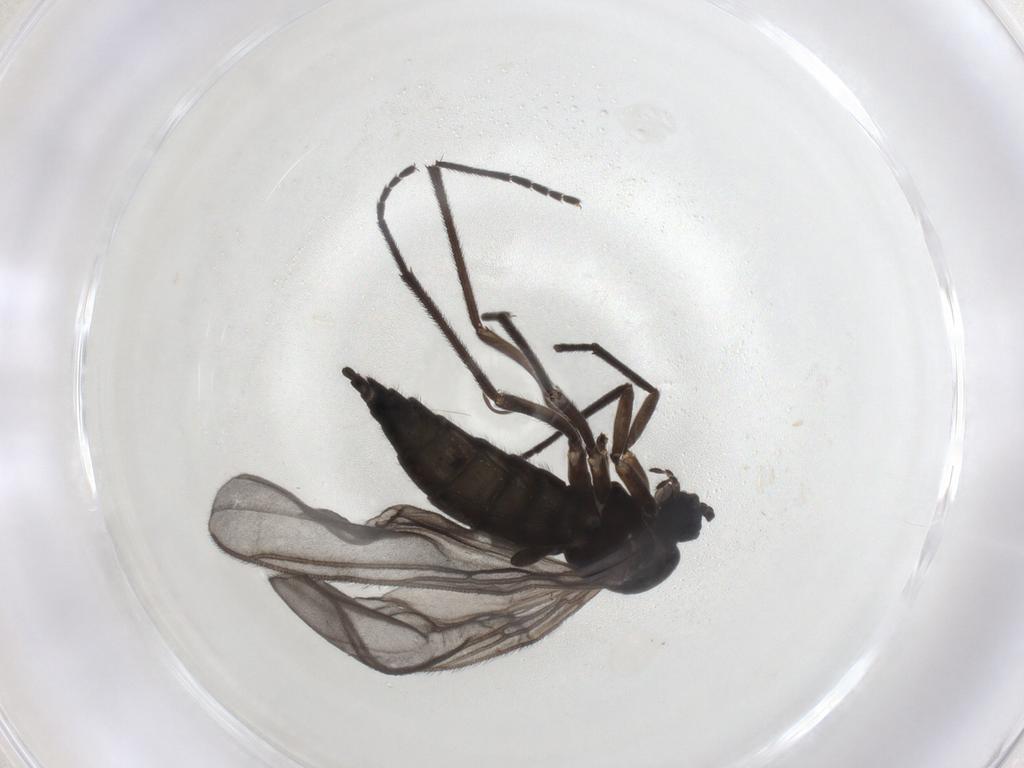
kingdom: Animalia
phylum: Arthropoda
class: Insecta
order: Diptera
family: Sciaridae
